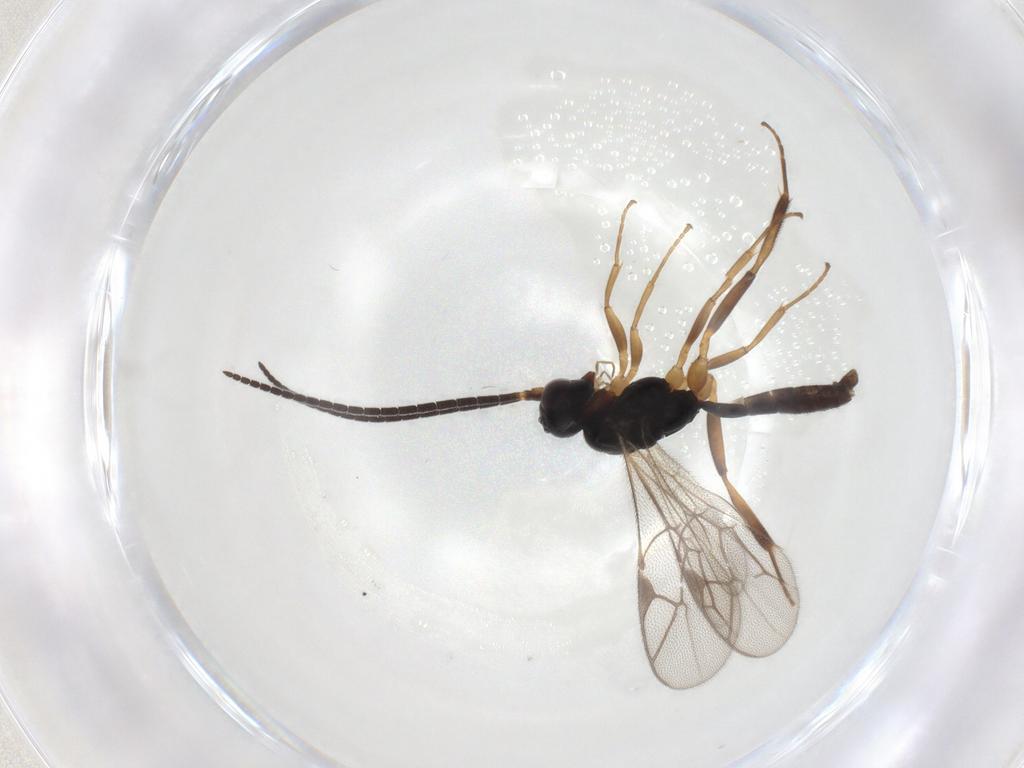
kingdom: Animalia
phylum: Arthropoda
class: Insecta
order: Hymenoptera
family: Ichneumonidae
